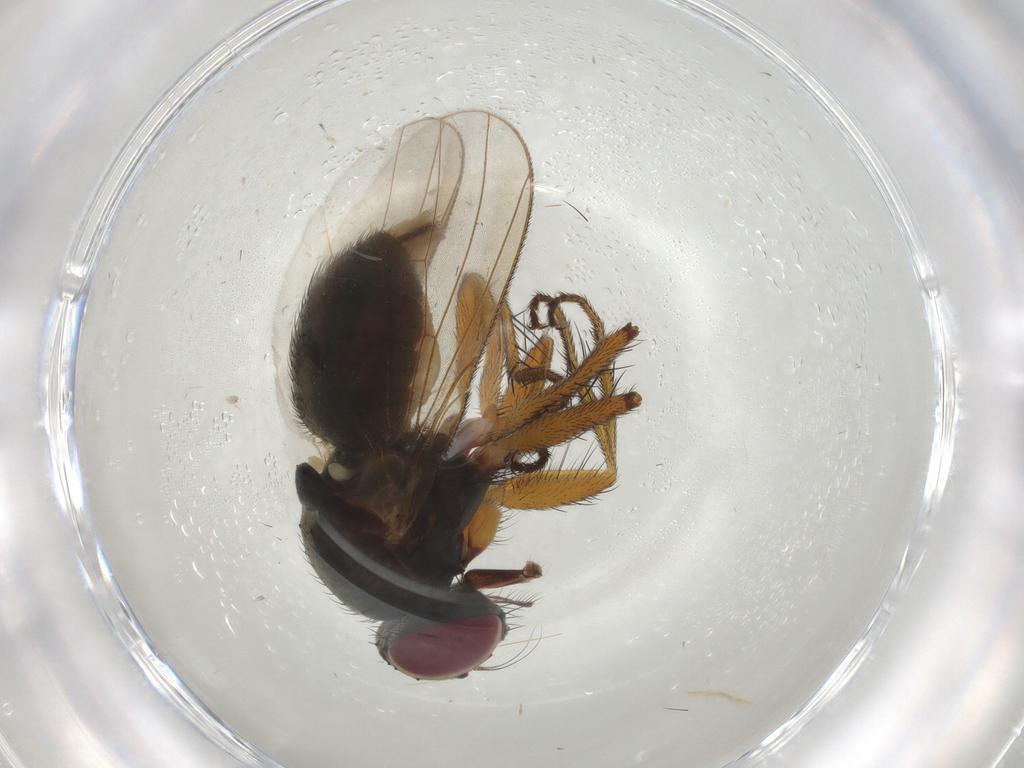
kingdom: Animalia
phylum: Arthropoda
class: Insecta
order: Diptera
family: Muscidae
